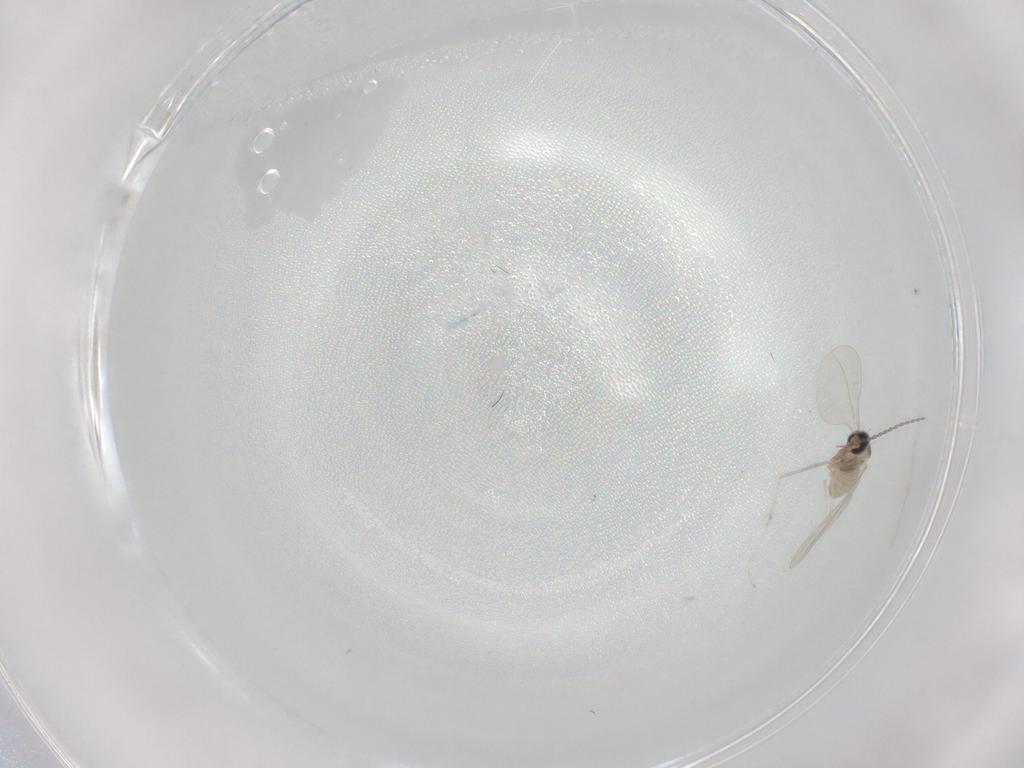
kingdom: Animalia
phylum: Arthropoda
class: Insecta
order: Diptera
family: Cecidomyiidae
